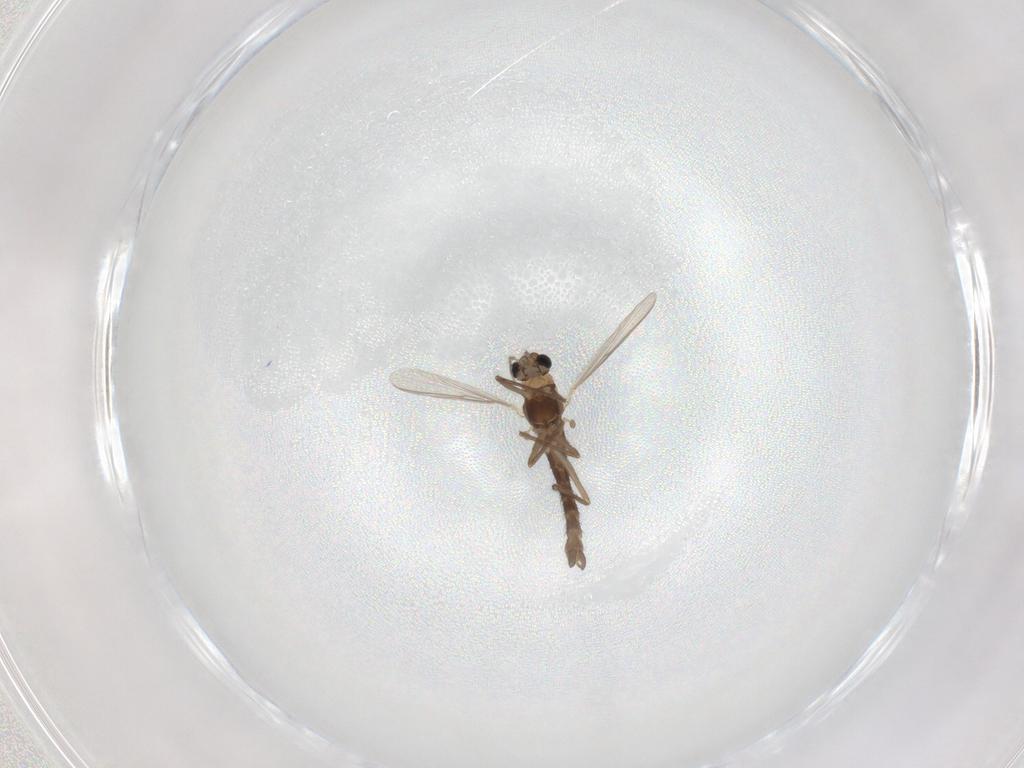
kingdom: Animalia
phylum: Arthropoda
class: Insecta
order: Diptera
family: Chironomidae
